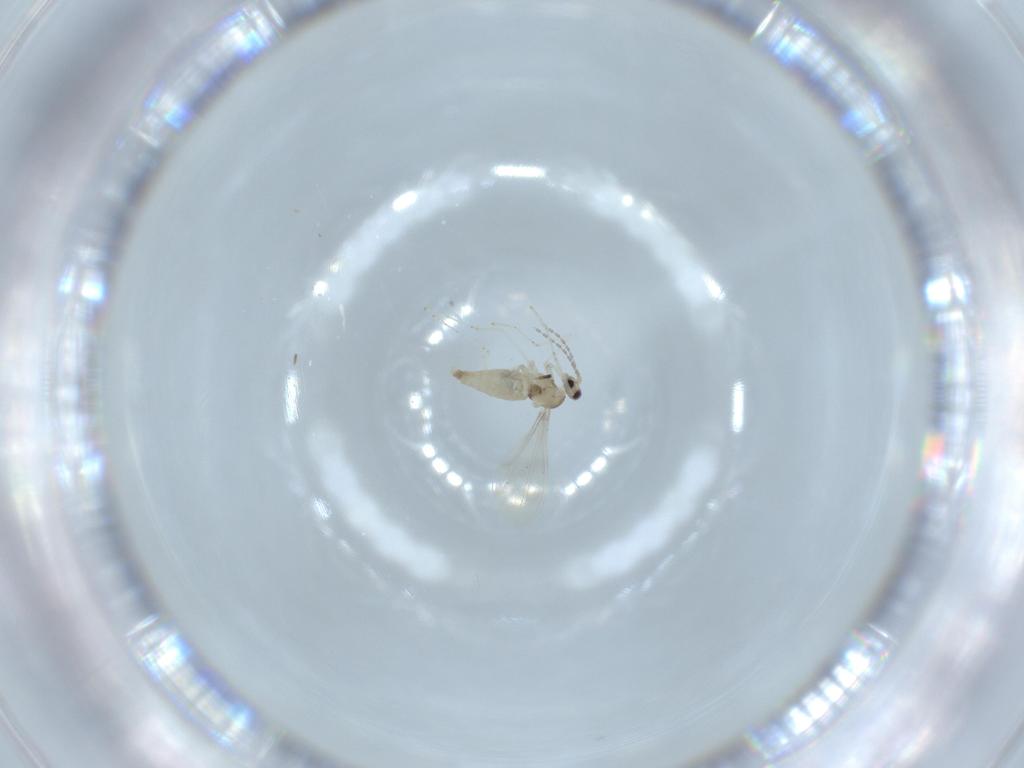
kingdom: Animalia
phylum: Arthropoda
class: Insecta
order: Diptera
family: Cecidomyiidae
